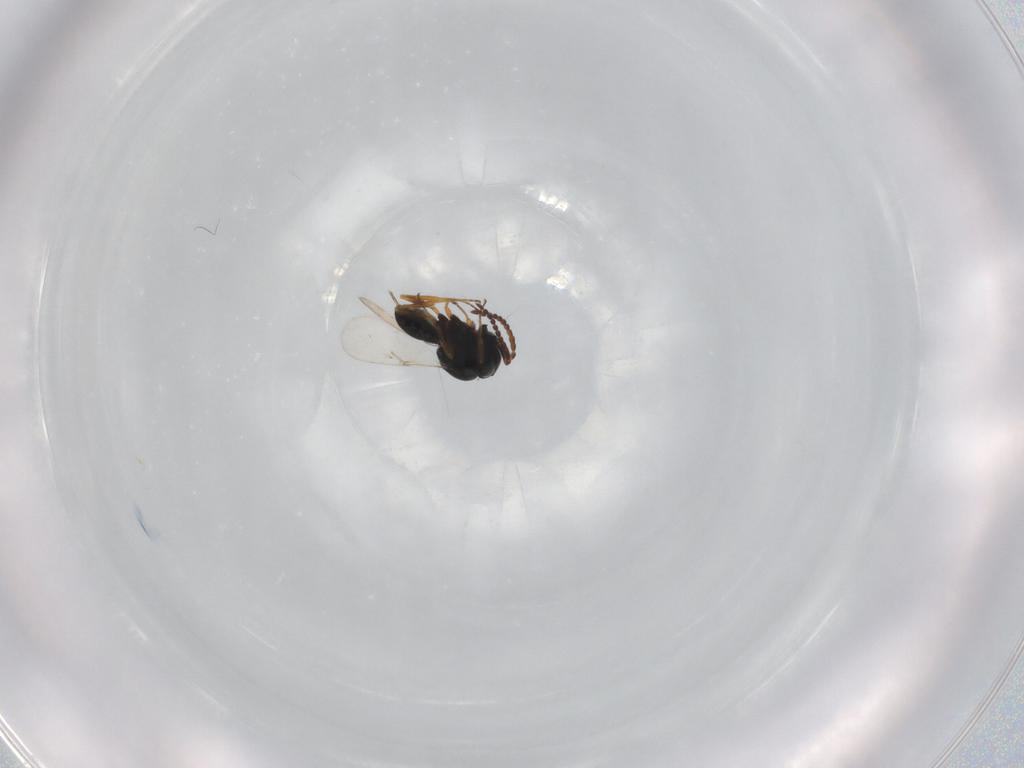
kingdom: Animalia
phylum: Arthropoda
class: Insecta
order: Hymenoptera
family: Scelionidae
